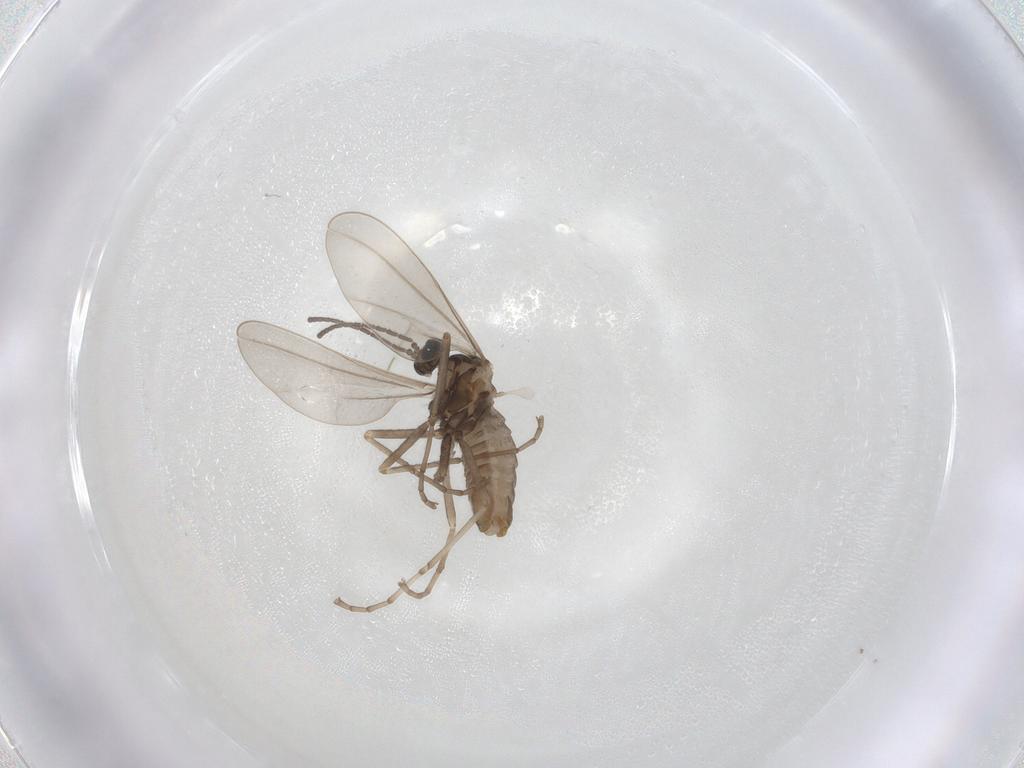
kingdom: Animalia
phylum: Arthropoda
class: Insecta
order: Diptera
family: Cecidomyiidae
